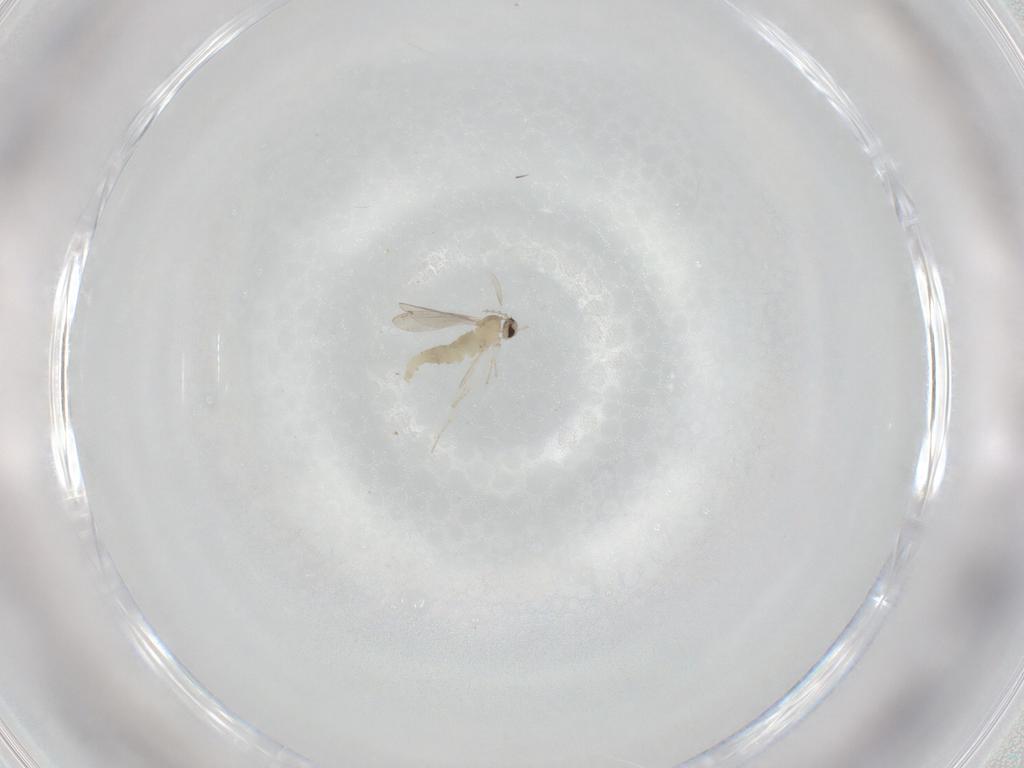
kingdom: Animalia
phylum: Arthropoda
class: Insecta
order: Diptera
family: Cecidomyiidae
